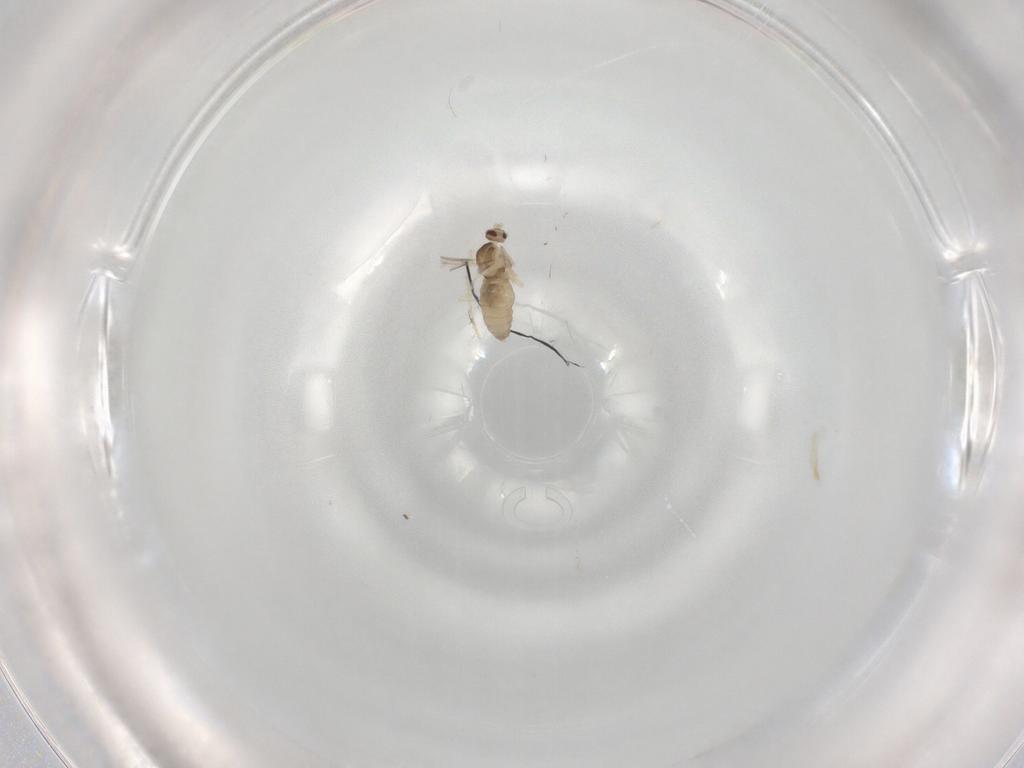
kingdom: Animalia
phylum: Arthropoda
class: Insecta
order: Diptera
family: Cecidomyiidae
